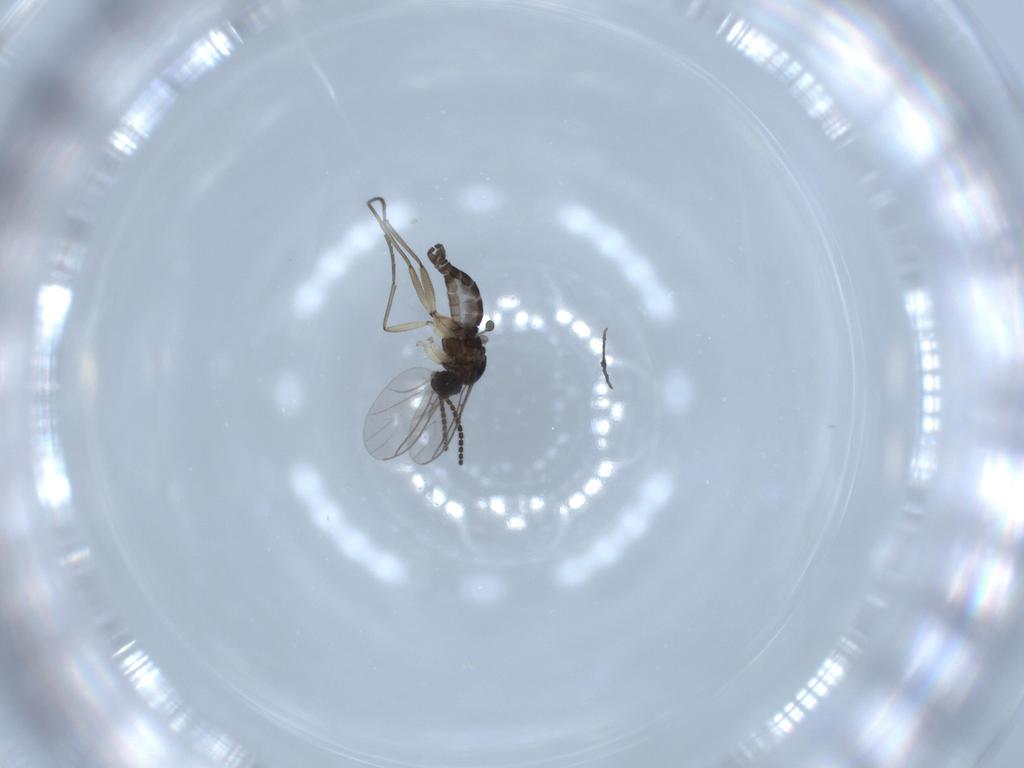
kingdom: Animalia
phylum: Arthropoda
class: Insecta
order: Diptera
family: Sciaridae
